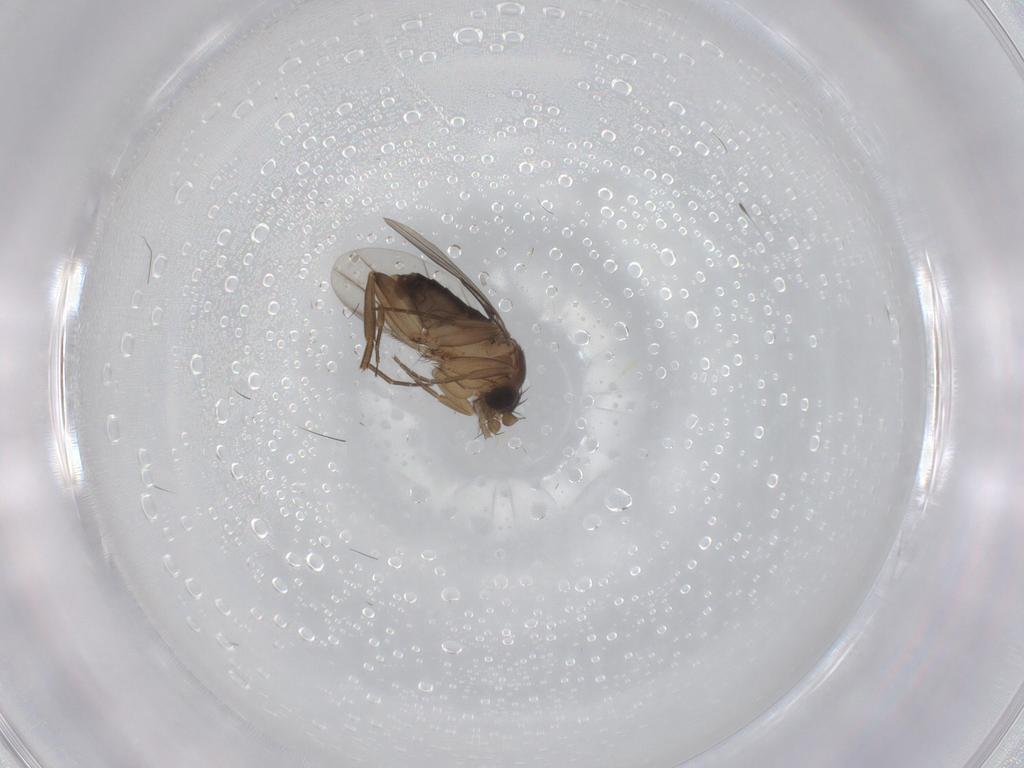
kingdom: Animalia
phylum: Arthropoda
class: Insecta
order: Diptera
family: Phoridae
